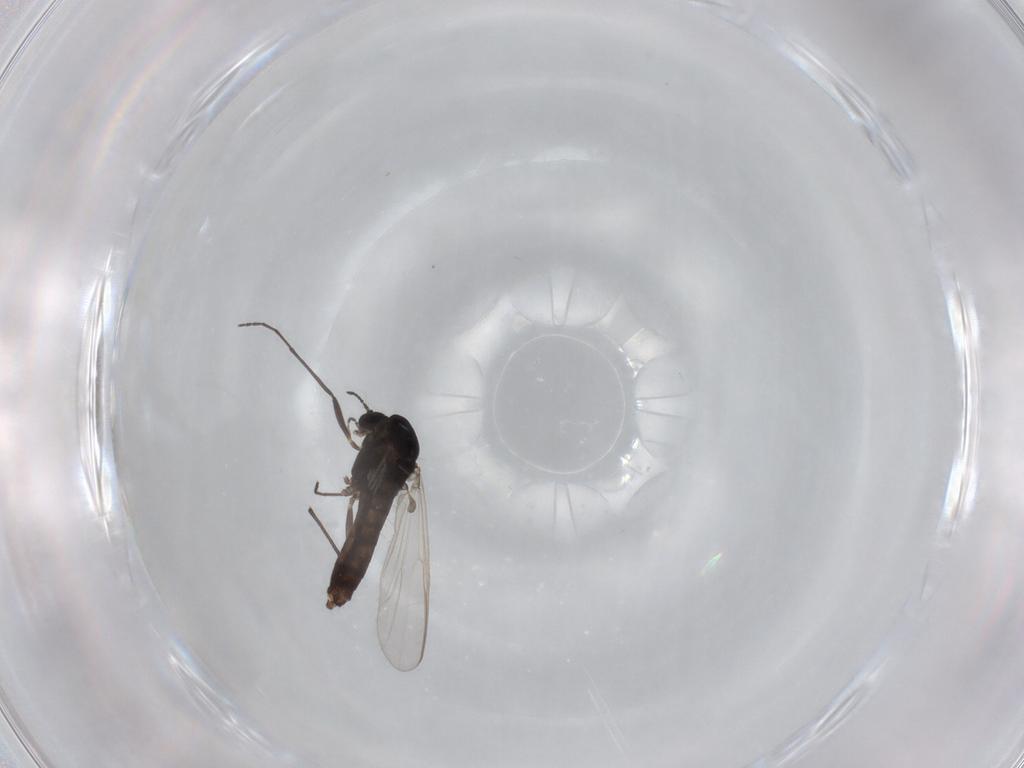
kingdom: Animalia
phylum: Arthropoda
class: Insecta
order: Diptera
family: Chironomidae
